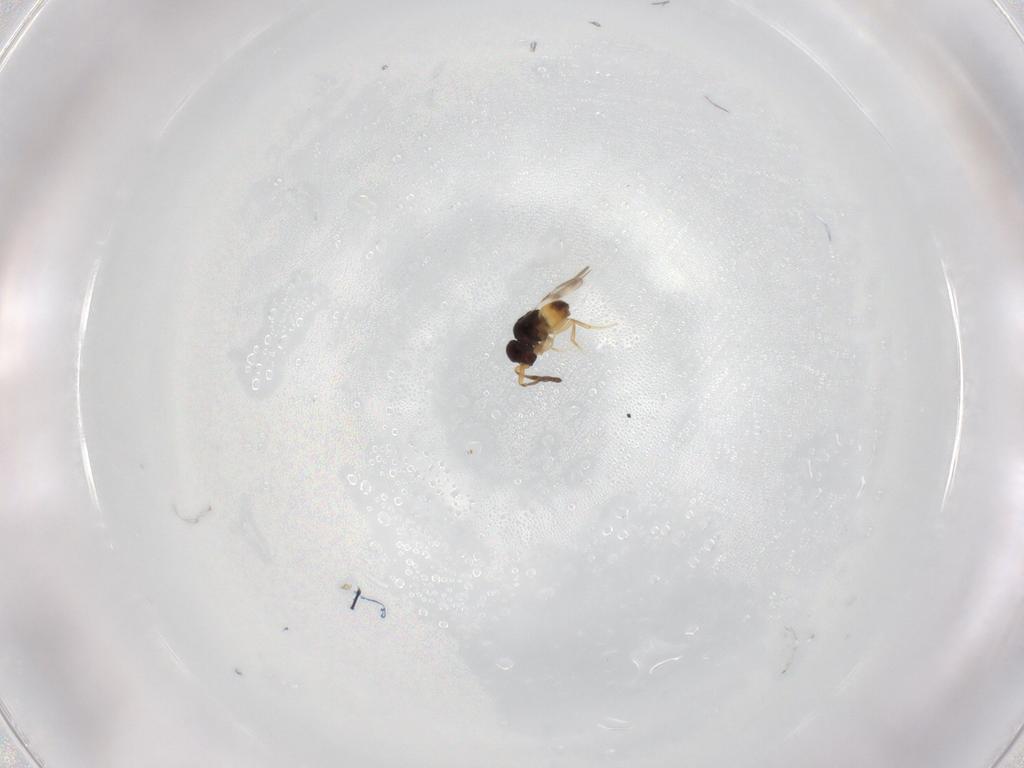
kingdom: Animalia
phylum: Arthropoda
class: Insecta
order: Hymenoptera
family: Ceraphronidae
